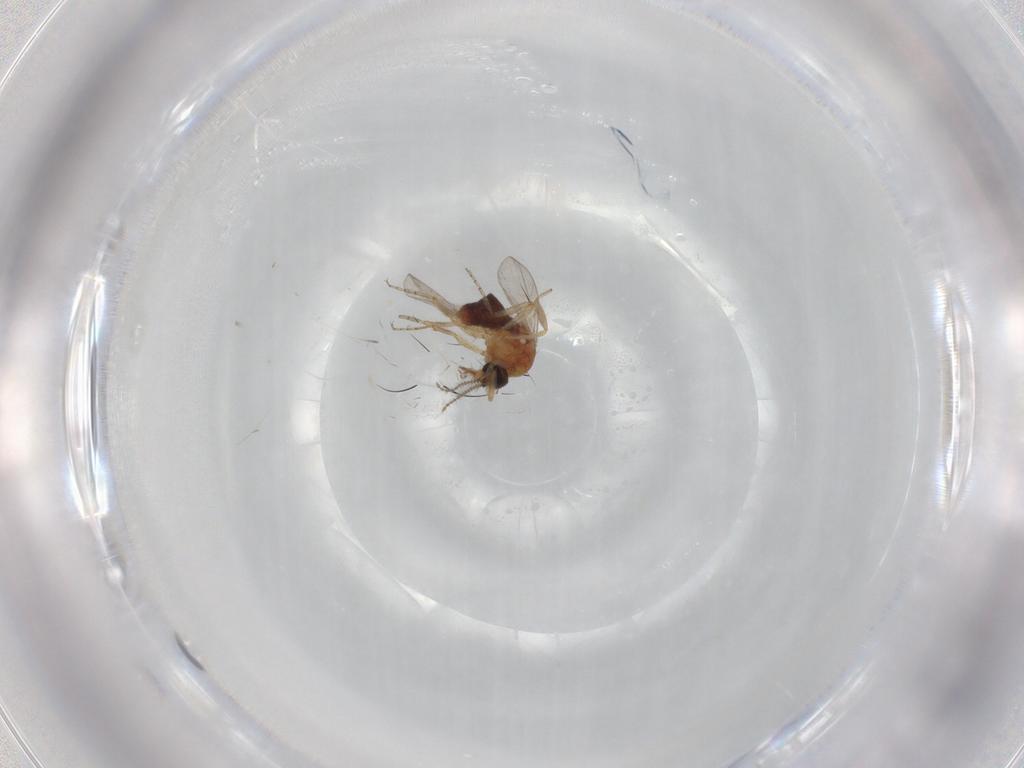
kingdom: Animalia
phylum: Arthropoda
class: Insecta
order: Diptera
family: Ceratopogonidae
